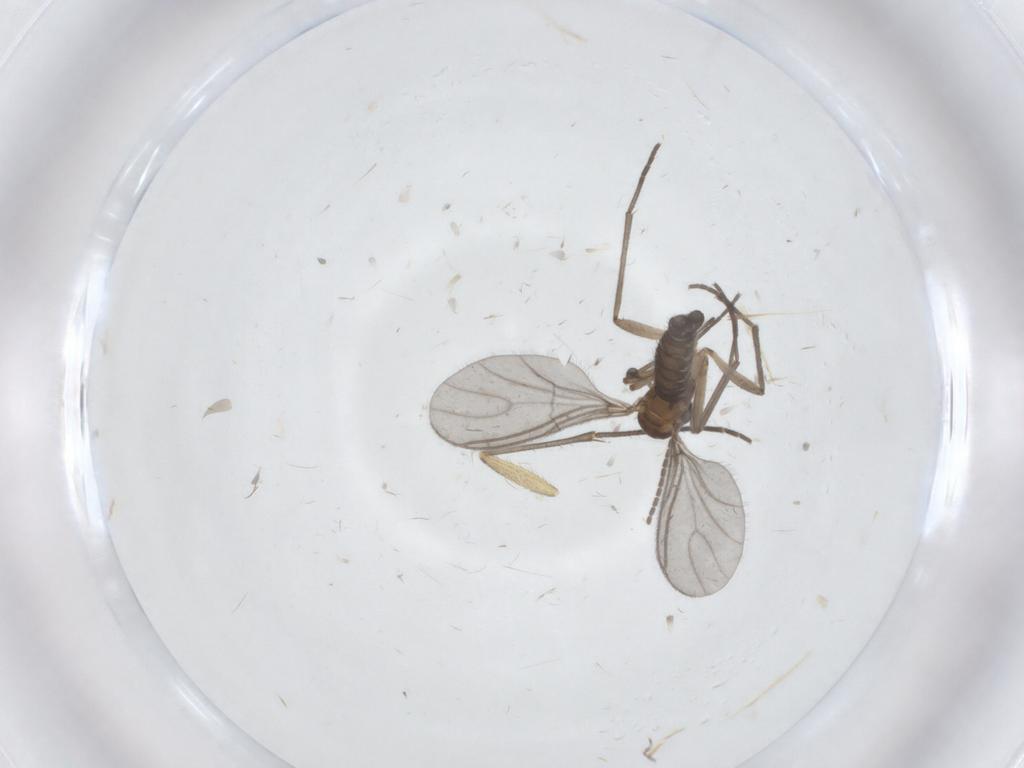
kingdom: Animalia
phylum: Arthropoda
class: Insecta
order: Diptera
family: Sciaridae
